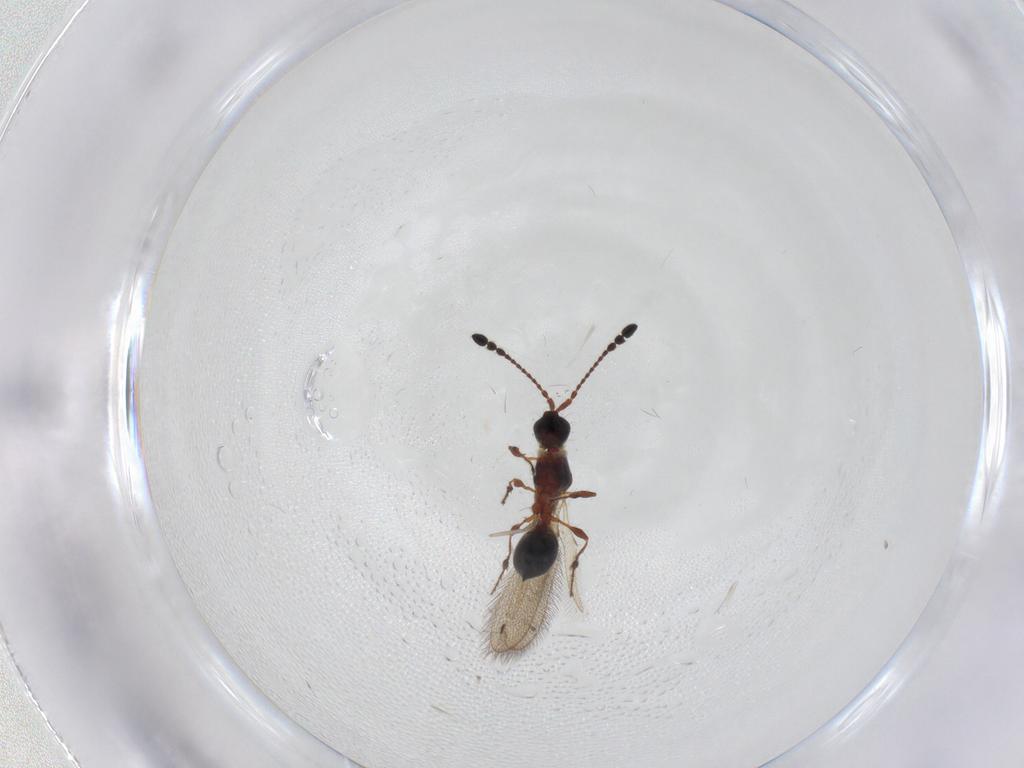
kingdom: Animalia
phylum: Arthropoda
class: Insecta
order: Hymenoptera
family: Diapriidae
